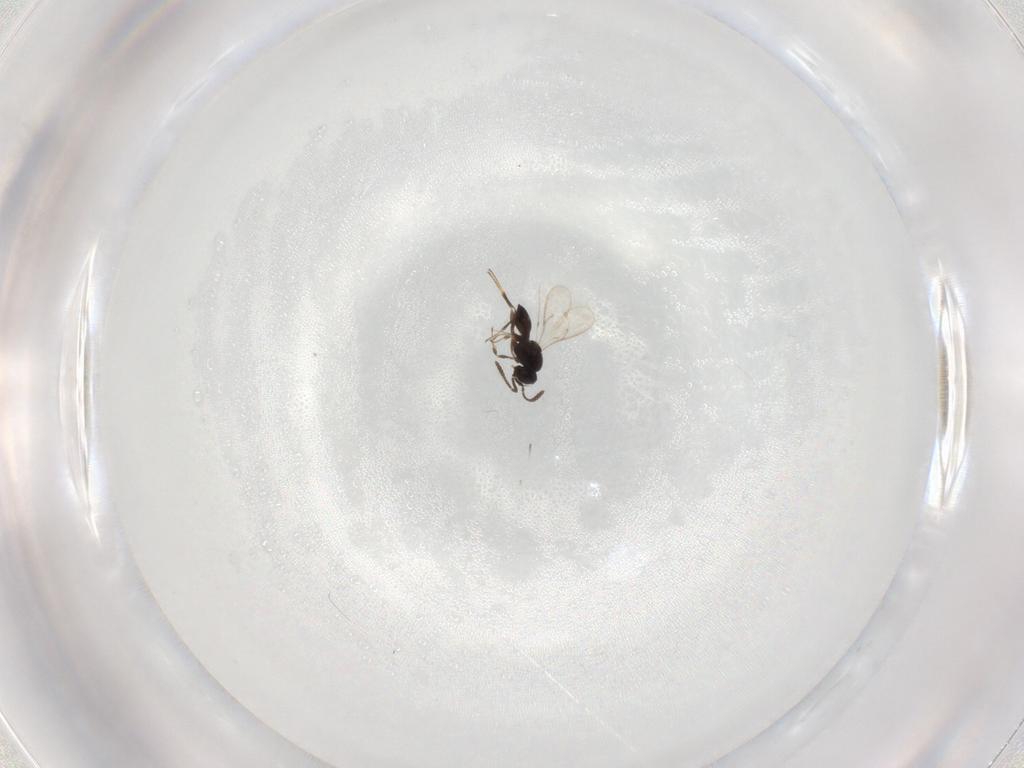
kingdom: Animalia
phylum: Arthropoda
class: Insecta
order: Hymenoptera
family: Scelionidae
